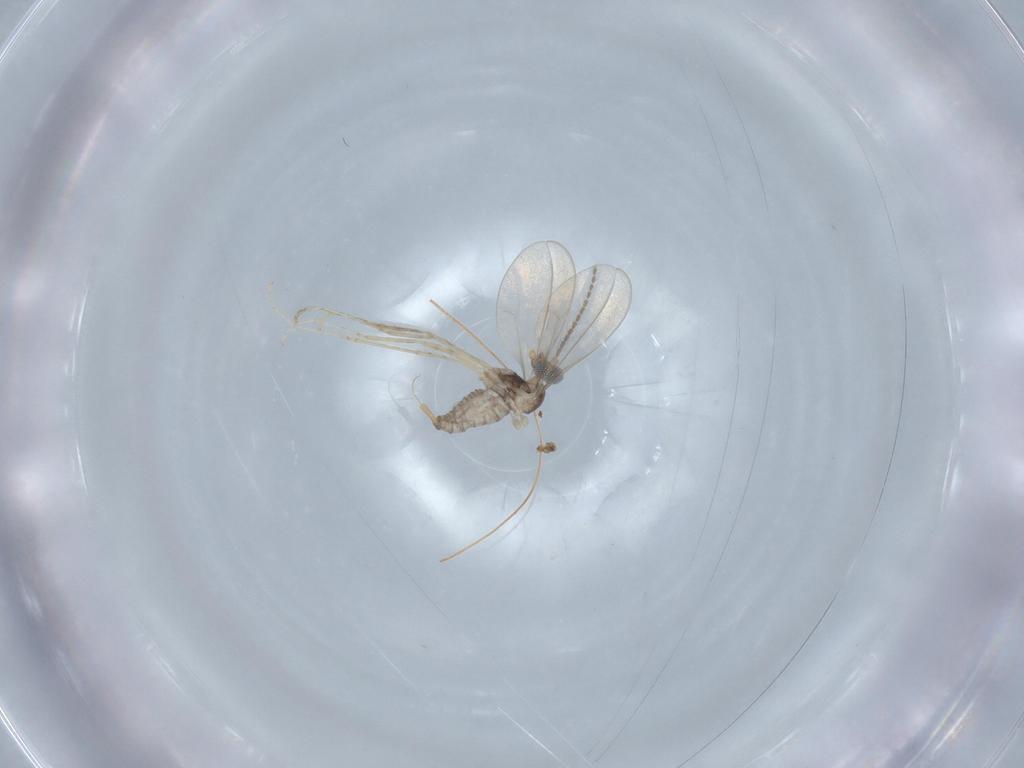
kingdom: Animalia
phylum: Arthropoda
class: Insecta
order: Diptera
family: Cecidomyiidae
